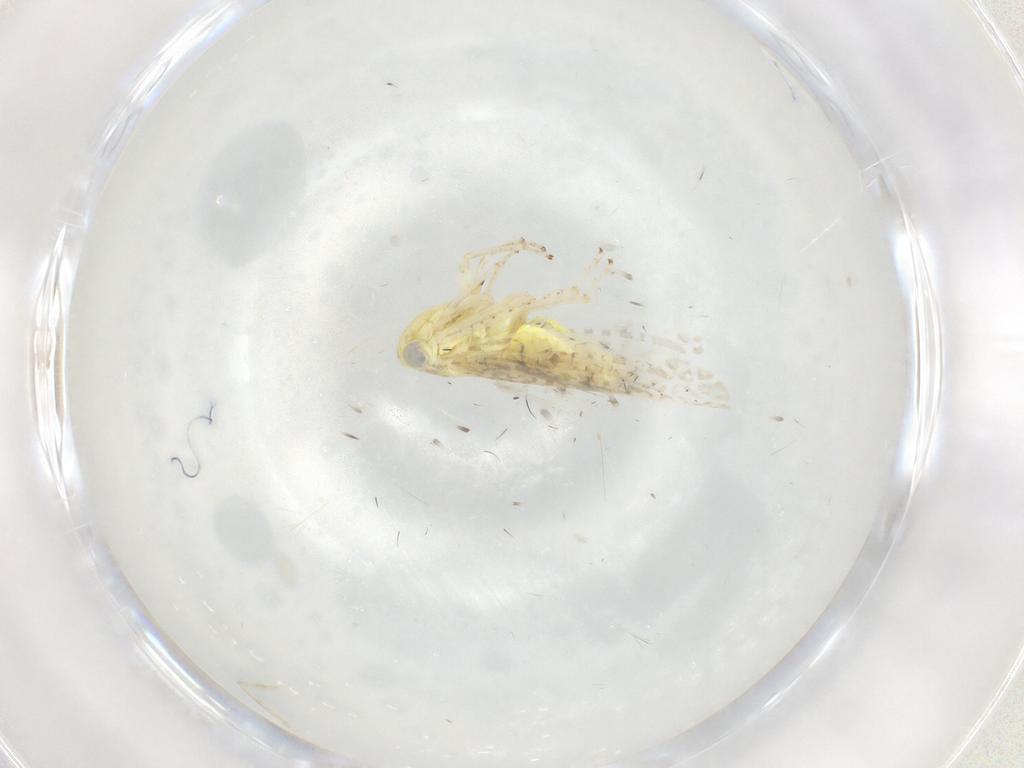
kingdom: Animalia
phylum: Arthropoda
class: Insecta
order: Hemiptera
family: Cicadellidae
